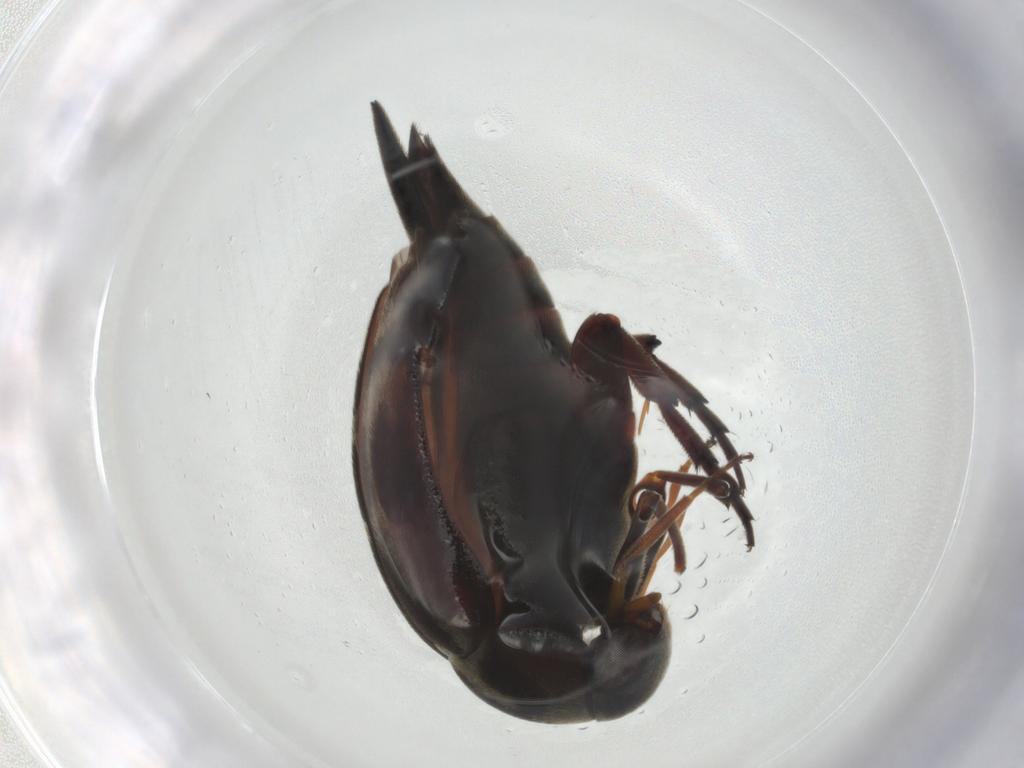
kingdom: Animalia
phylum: Arthropoda
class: Insecta
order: Coleoptera
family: Mordellidae
